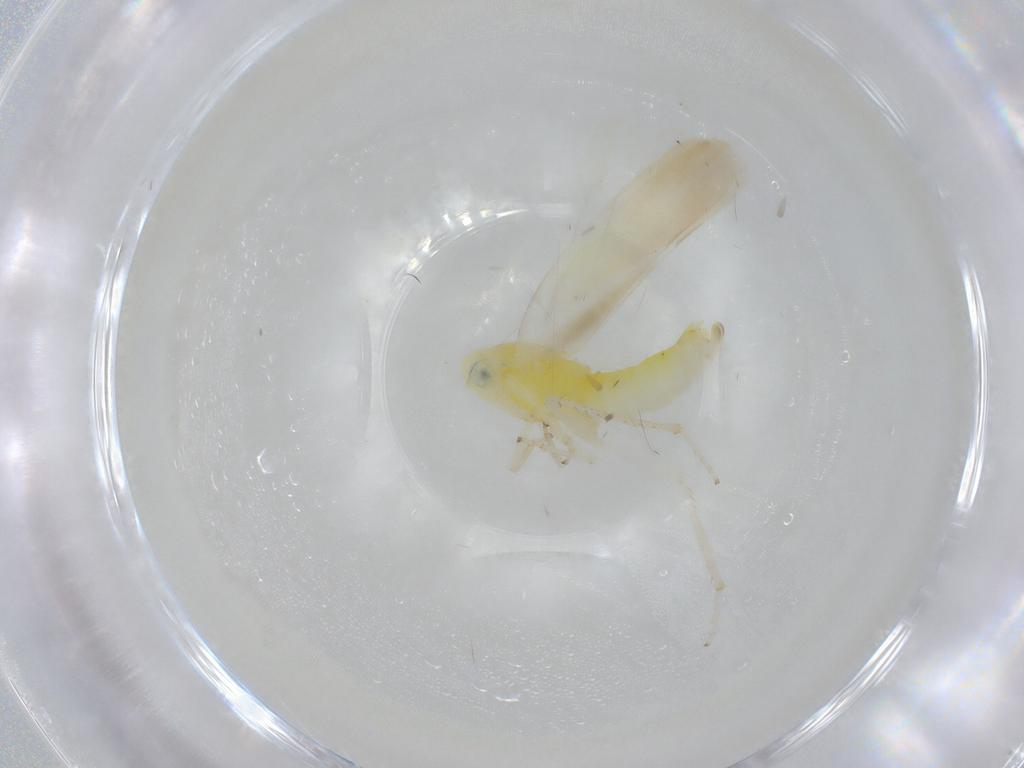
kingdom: Animalia
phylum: Arthropoda
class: Insecta
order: Hemiptera
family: Cicadellidae
